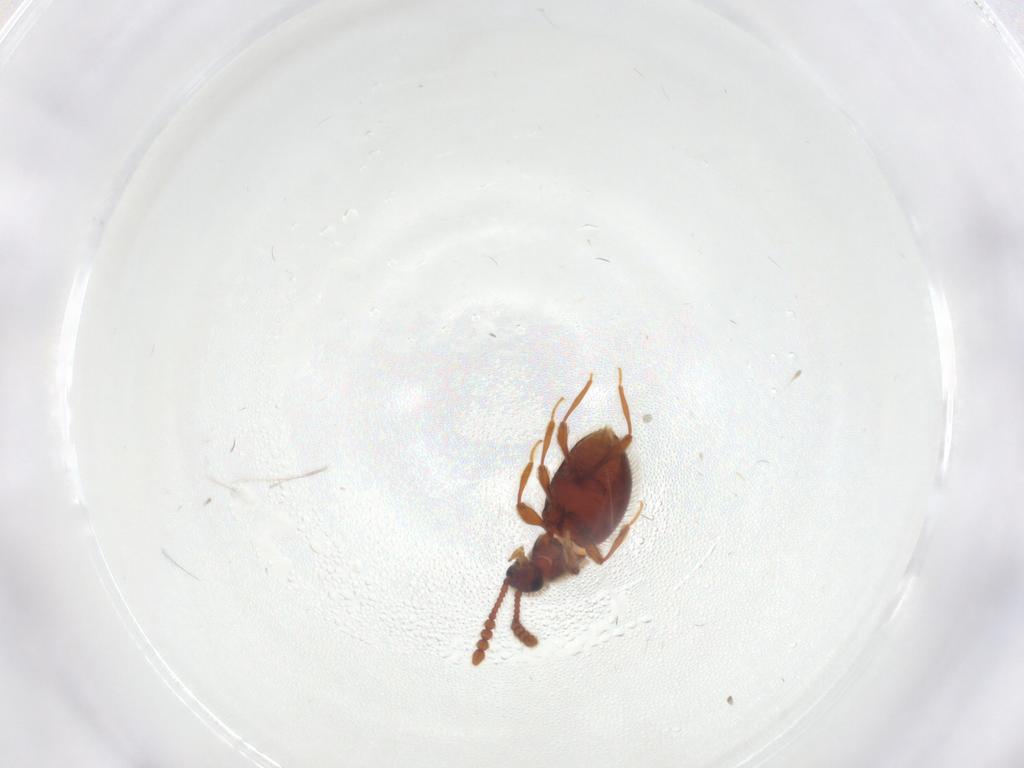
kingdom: Animalia
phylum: Arthropoda
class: Insecta
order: Coleoptera
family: Staphylinidae
